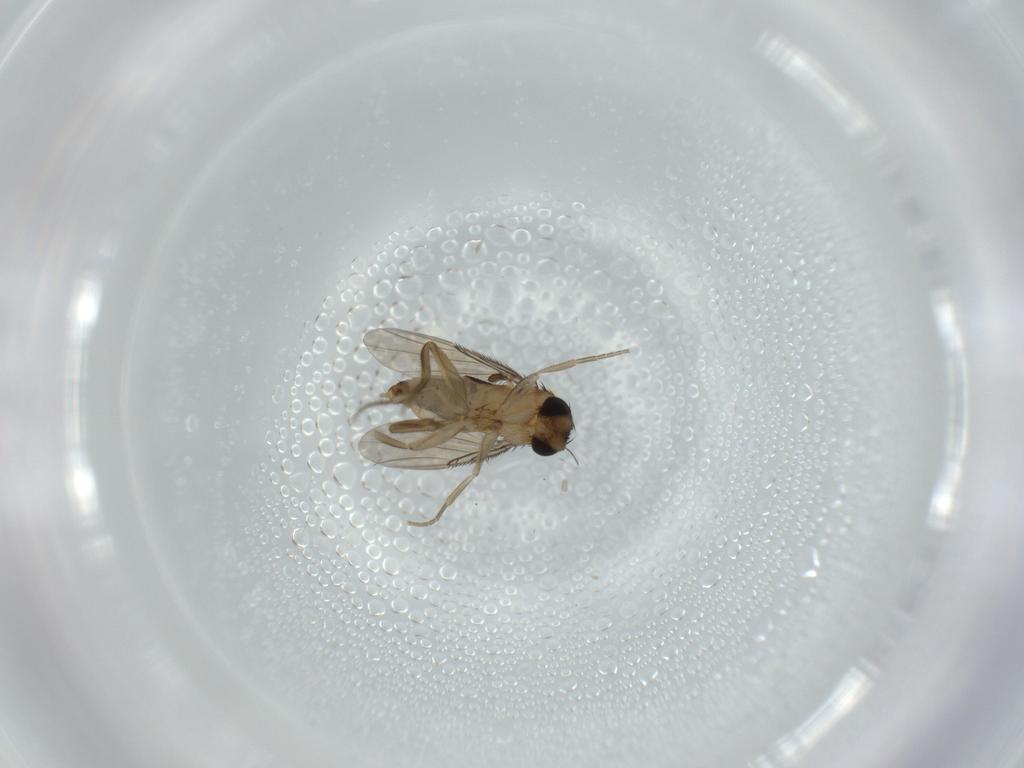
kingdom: Animalia
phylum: Arthropoda
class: Insecta
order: Diptera
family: Phoridae
